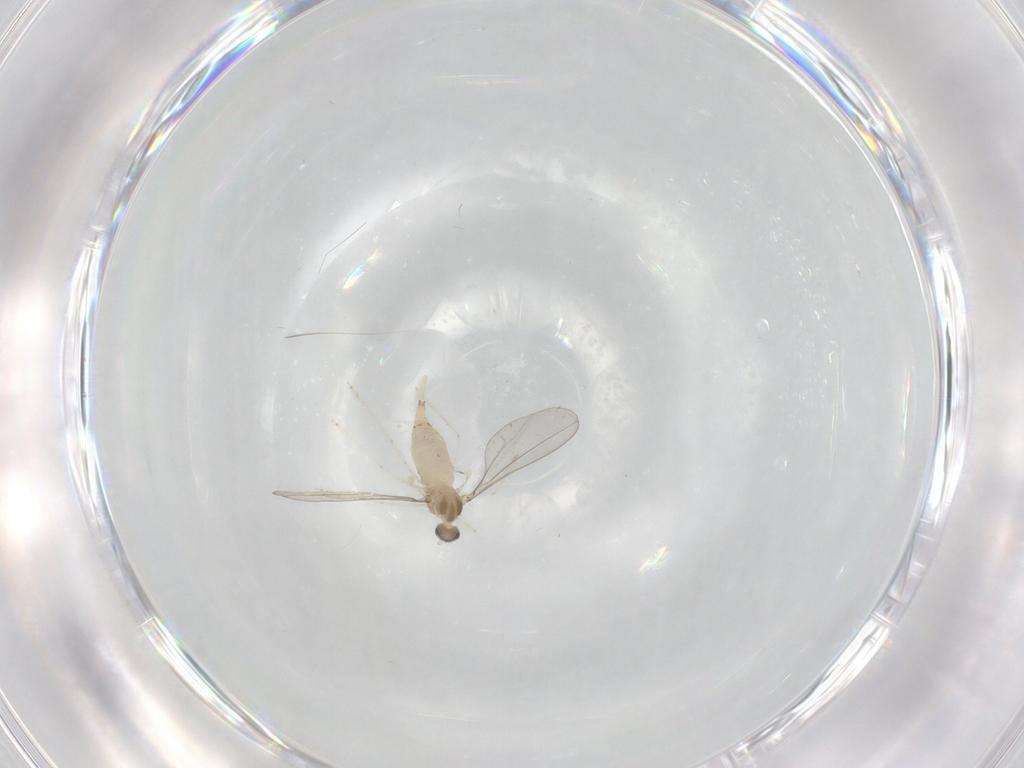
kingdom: Animalia
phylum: Arthropoda
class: Insecta
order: Diptera
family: Cecidomyiidae
